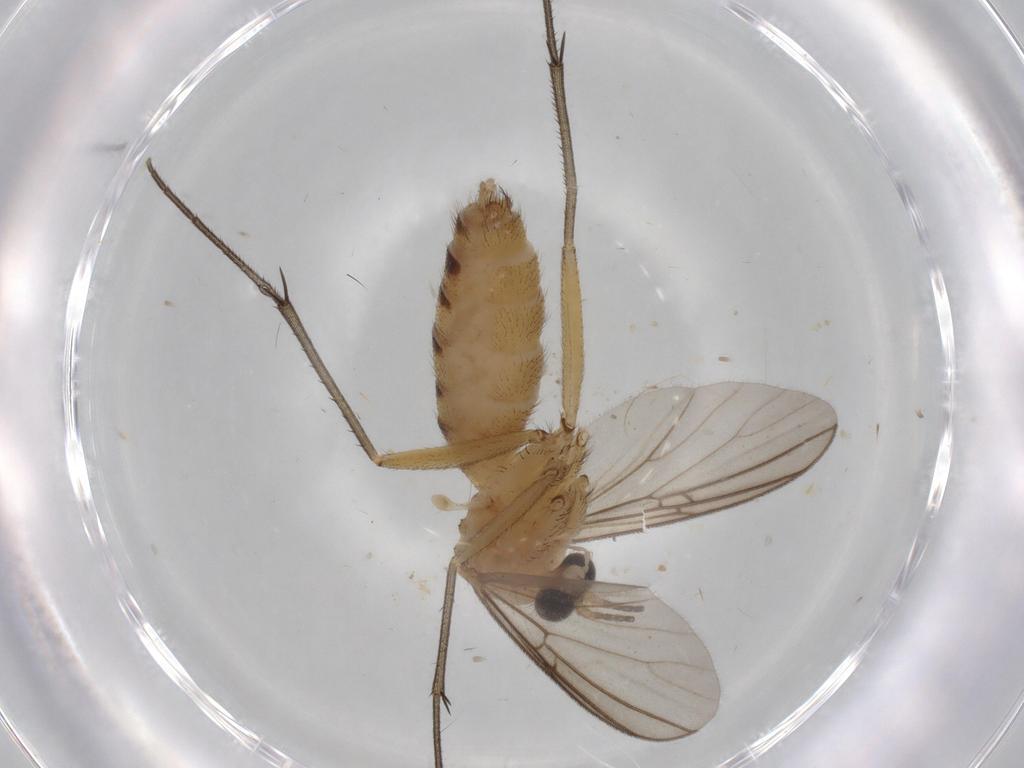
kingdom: Animalia
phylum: Arthropoda
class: Insecta
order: Diptera
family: Mycetophilidae
